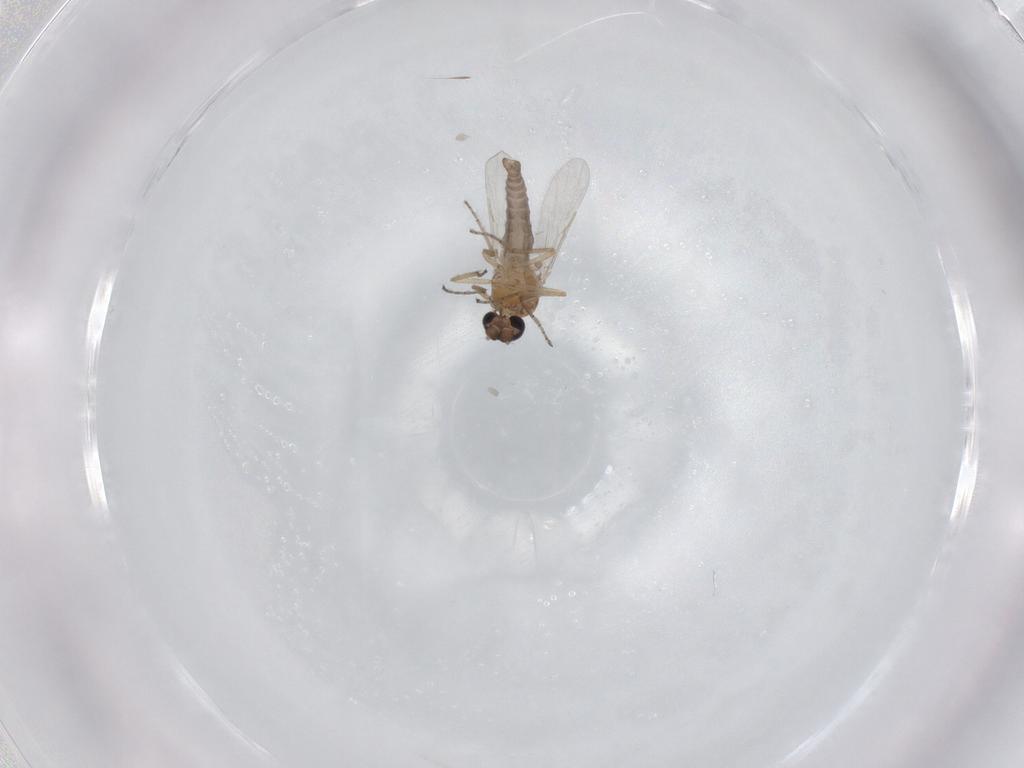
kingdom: Animalia
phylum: Arthropoda
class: Insecta
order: Diptera
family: Ceratopogonidae
